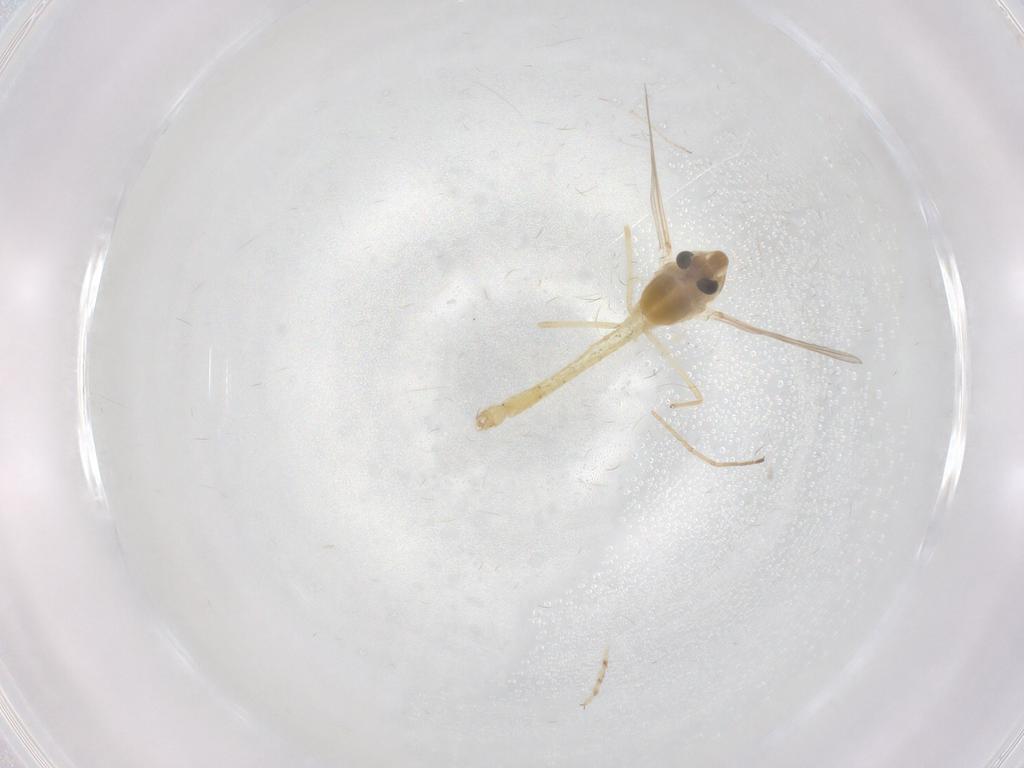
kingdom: Animalia
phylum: Arthropoda
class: Insecta
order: Diptera
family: Chironomidae
